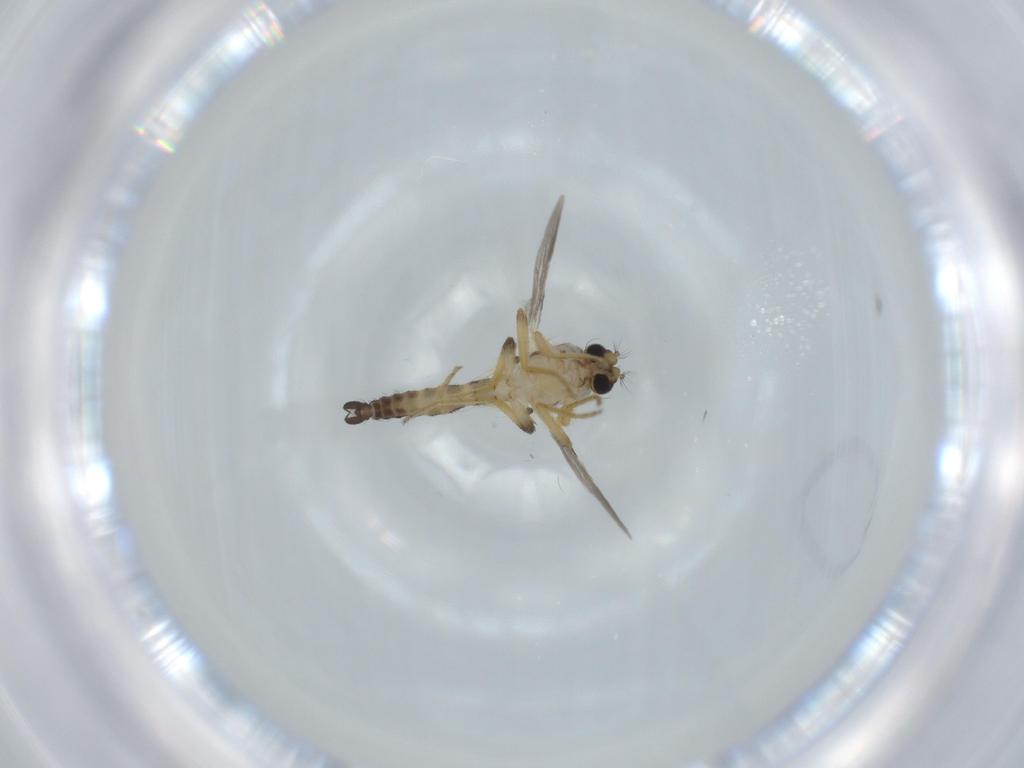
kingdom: Animalia
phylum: Arthropoda
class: Insecta
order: Diptera
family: Ceratopogonidae
